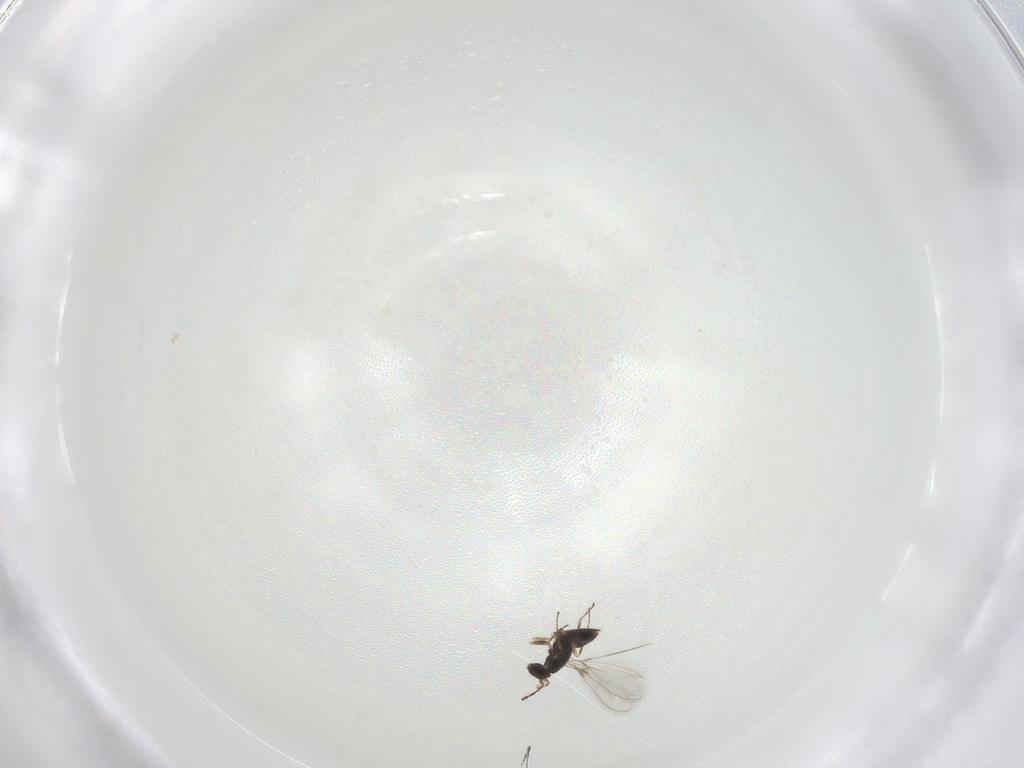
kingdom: Animalia
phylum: Arthropoda
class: Insecta
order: Hymenoptera
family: Mymaridae
